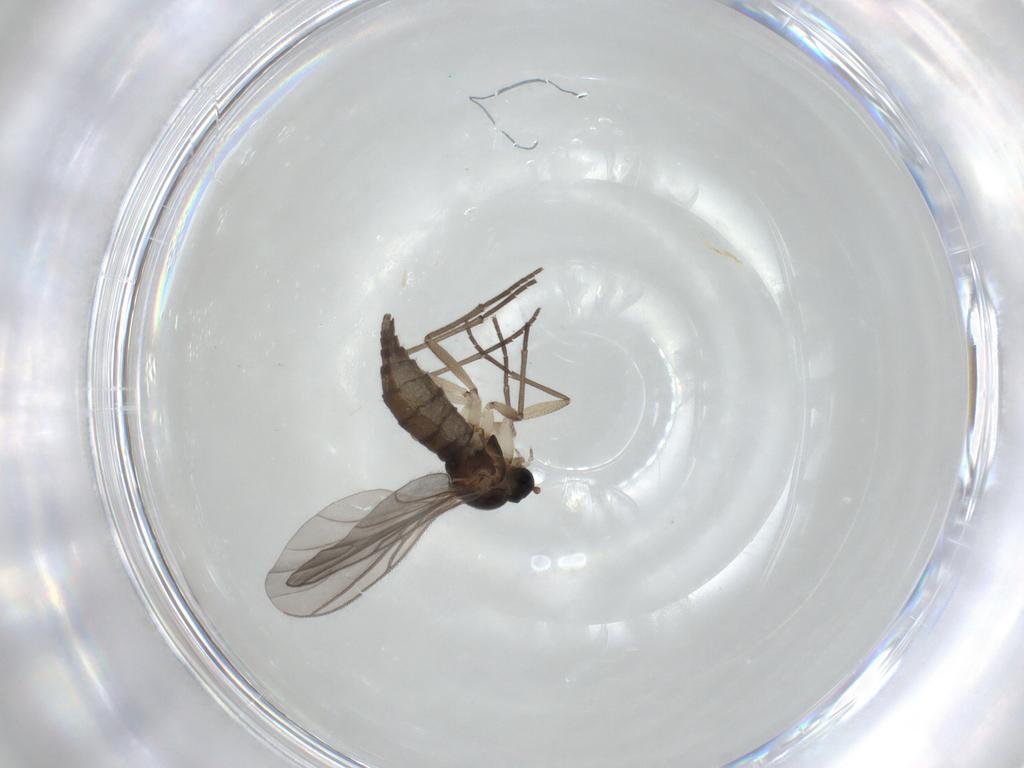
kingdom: Animalia
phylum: Arthropoda
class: Insecta
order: Diptera
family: Sciaridae
